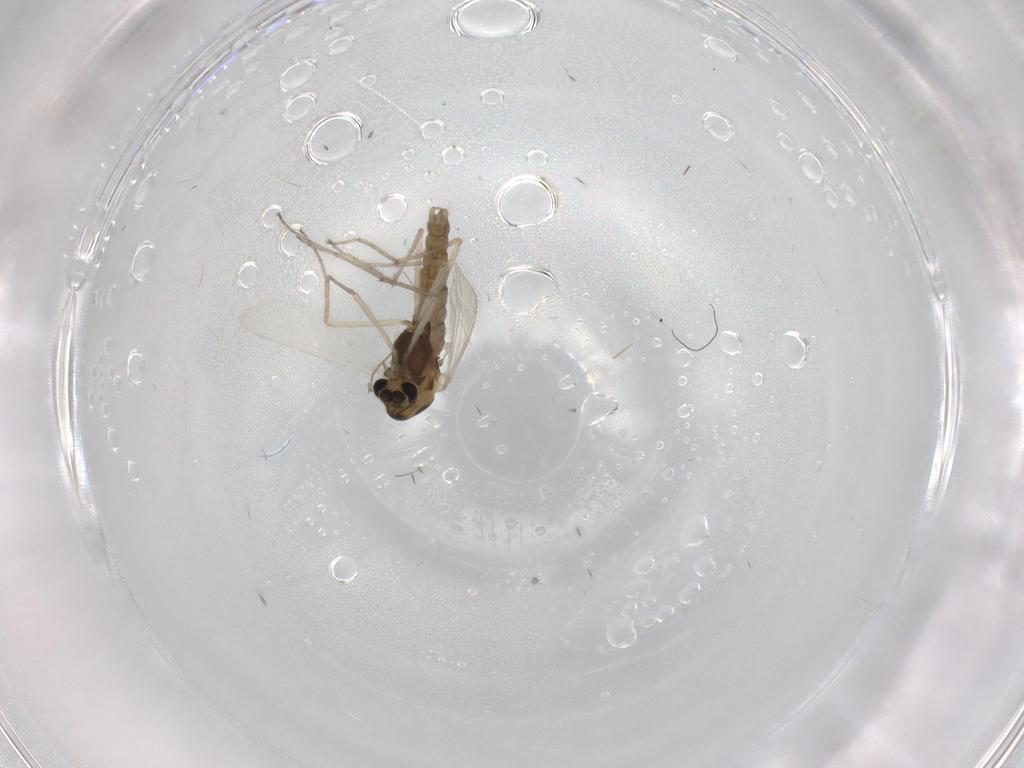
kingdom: Animalia
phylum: Arthropoda
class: Insecta
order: Diptera
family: Chironomidae
